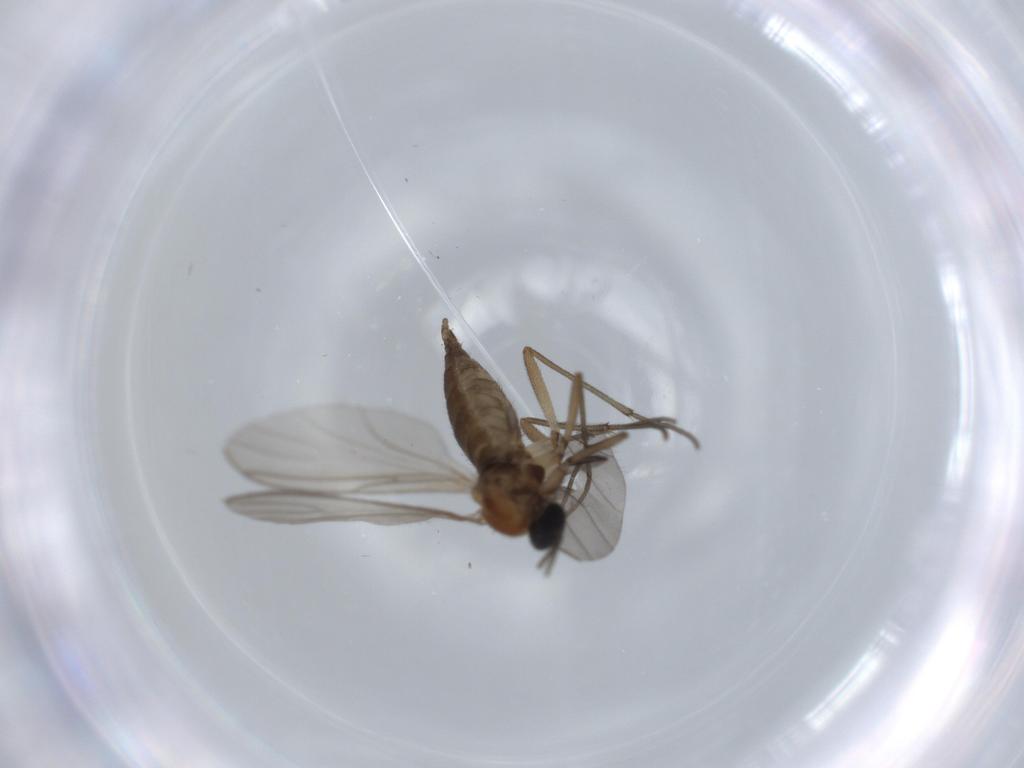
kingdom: Animalia
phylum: Arthropoda
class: Insecta
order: Diptera
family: Sciaridae
